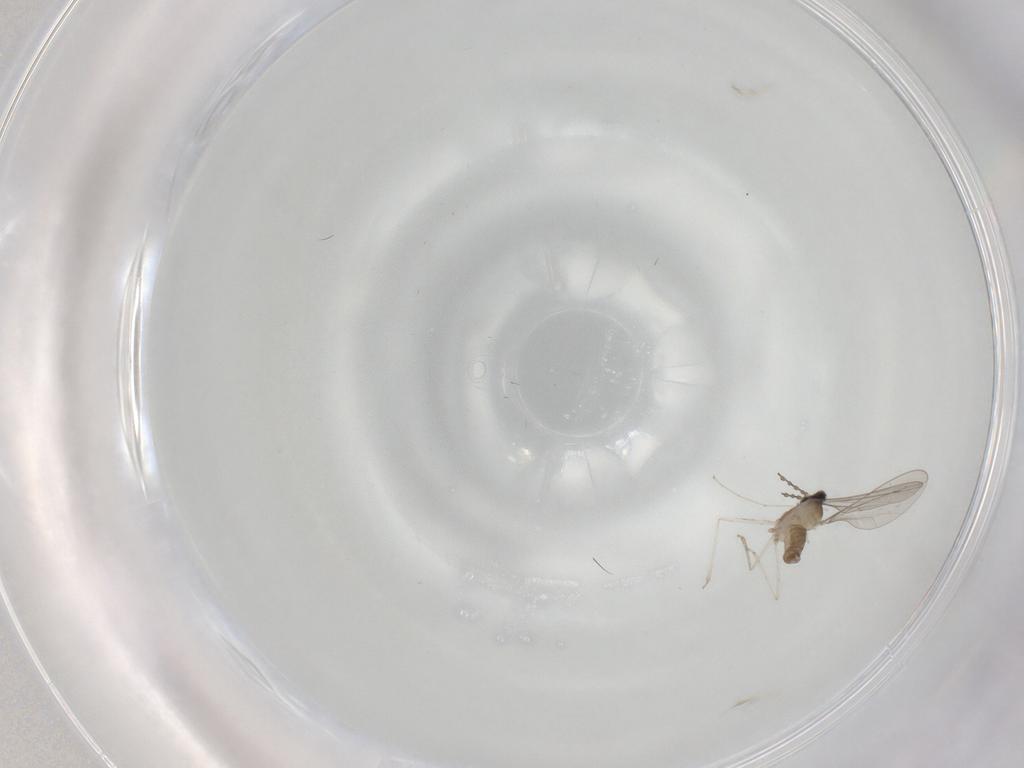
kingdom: Animalia
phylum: Arthropoda
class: Insecta
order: Diptera
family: Cecidomyiidae
